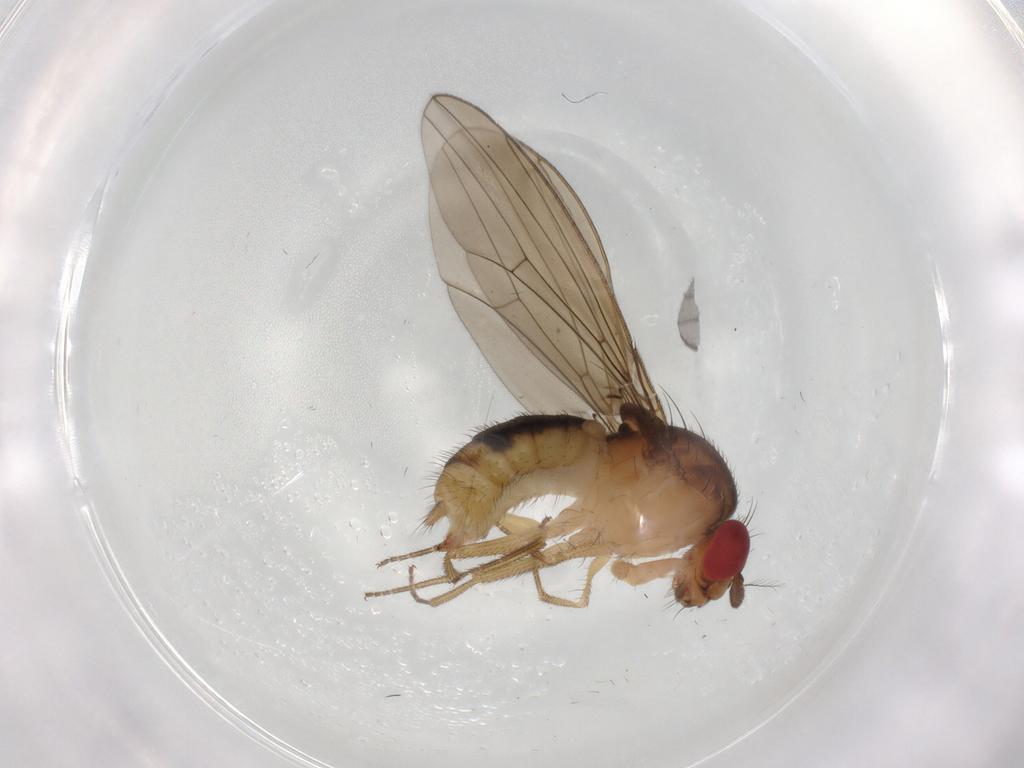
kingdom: Animalia
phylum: Arthropoda
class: Insecta
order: Diptera
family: Drosophilidae
